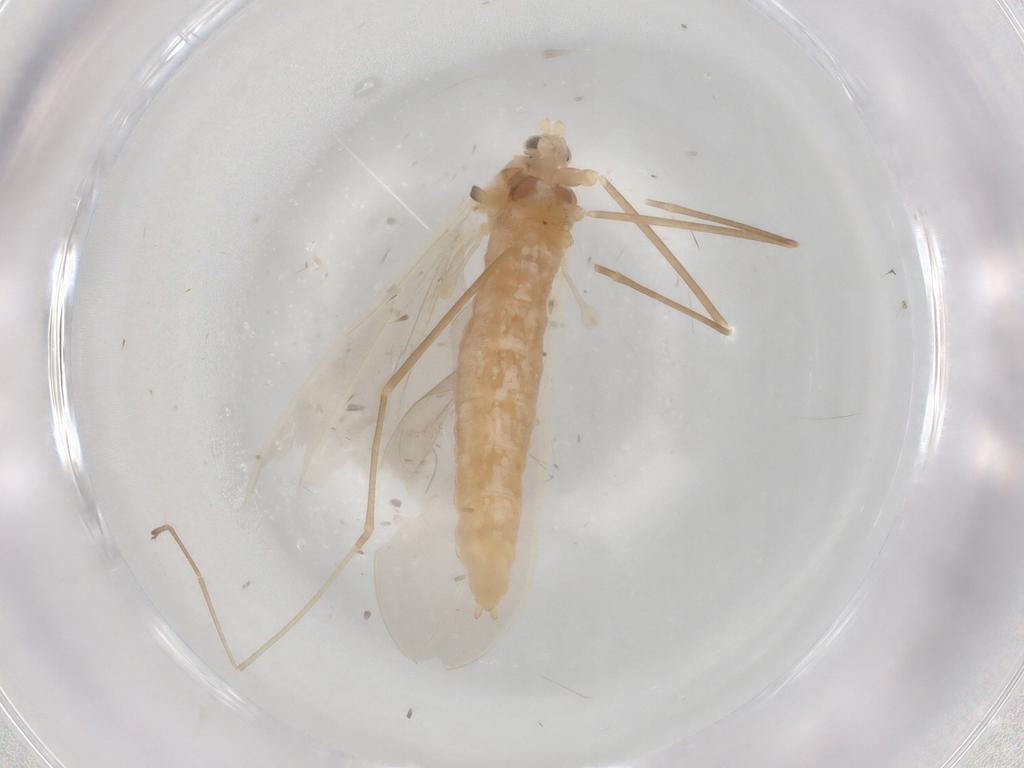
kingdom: Animalia
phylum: Arthropoda
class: Insecta
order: Diptera
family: Cecidomyiidae
